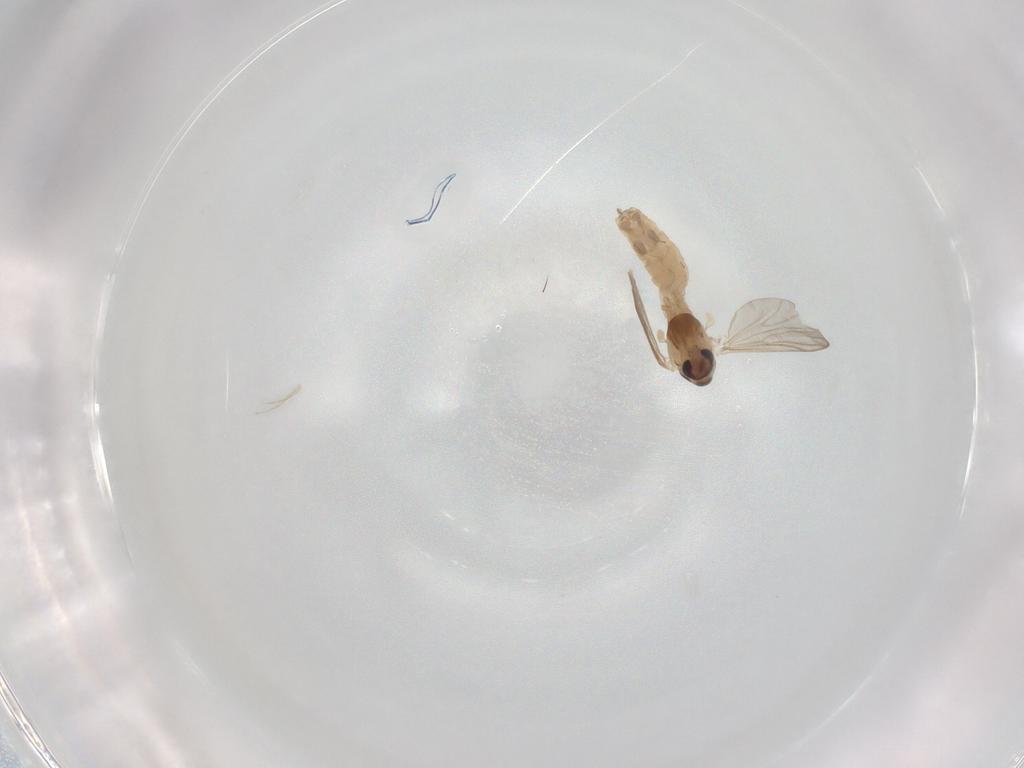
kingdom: Animalia
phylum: Arthropoda
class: Insecta
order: Diptera
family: Chironomidae
